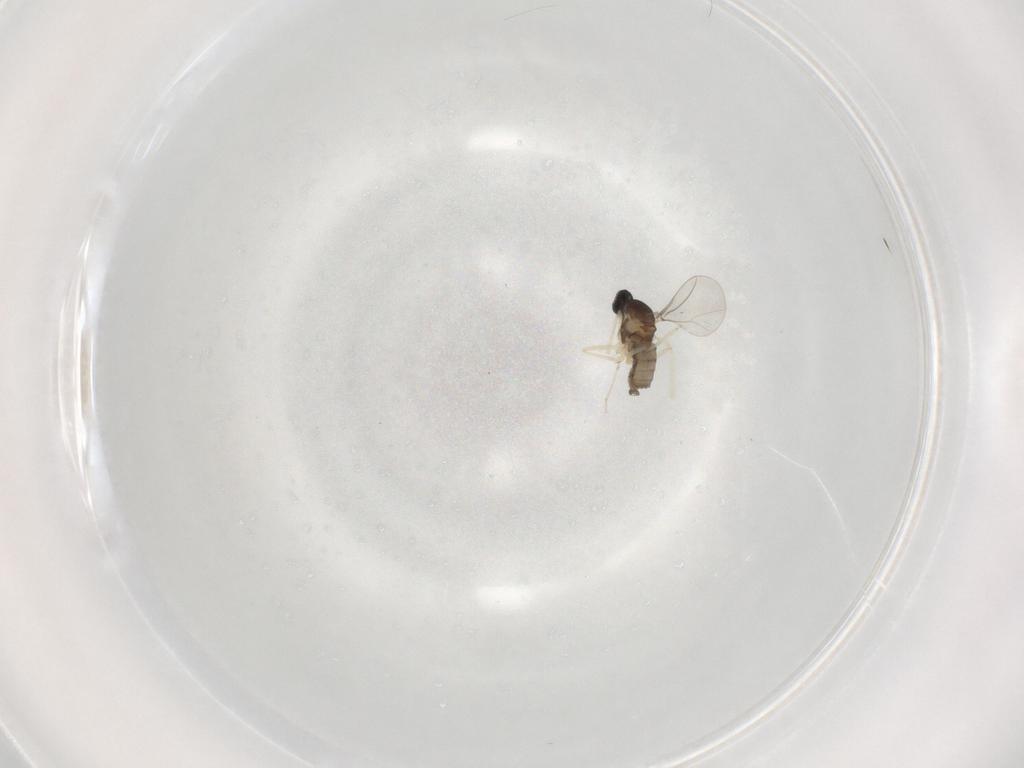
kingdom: Animalia
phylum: Arthropoda
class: Insecta
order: Diptera
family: Cecidomyiidae
